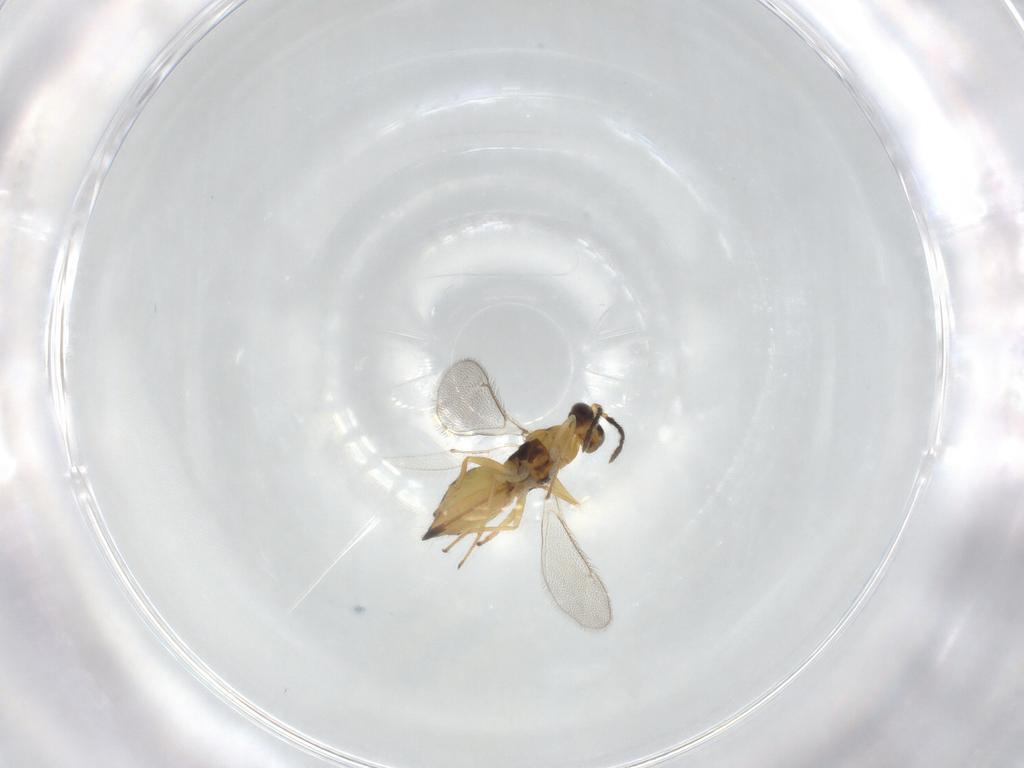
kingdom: Animalia
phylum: Arthropoda
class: Insecta
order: Hymenoptera
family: Eulophidae
